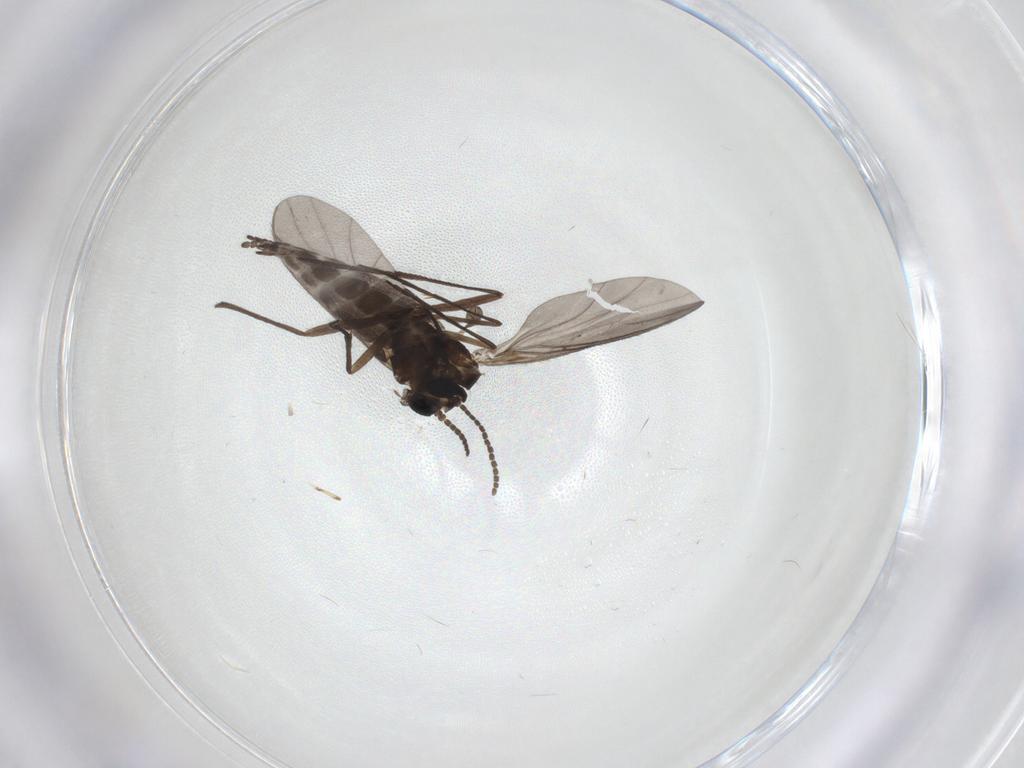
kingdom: Animalia
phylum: Arthropoda
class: Insecta
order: Diptera
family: Sciaridae
